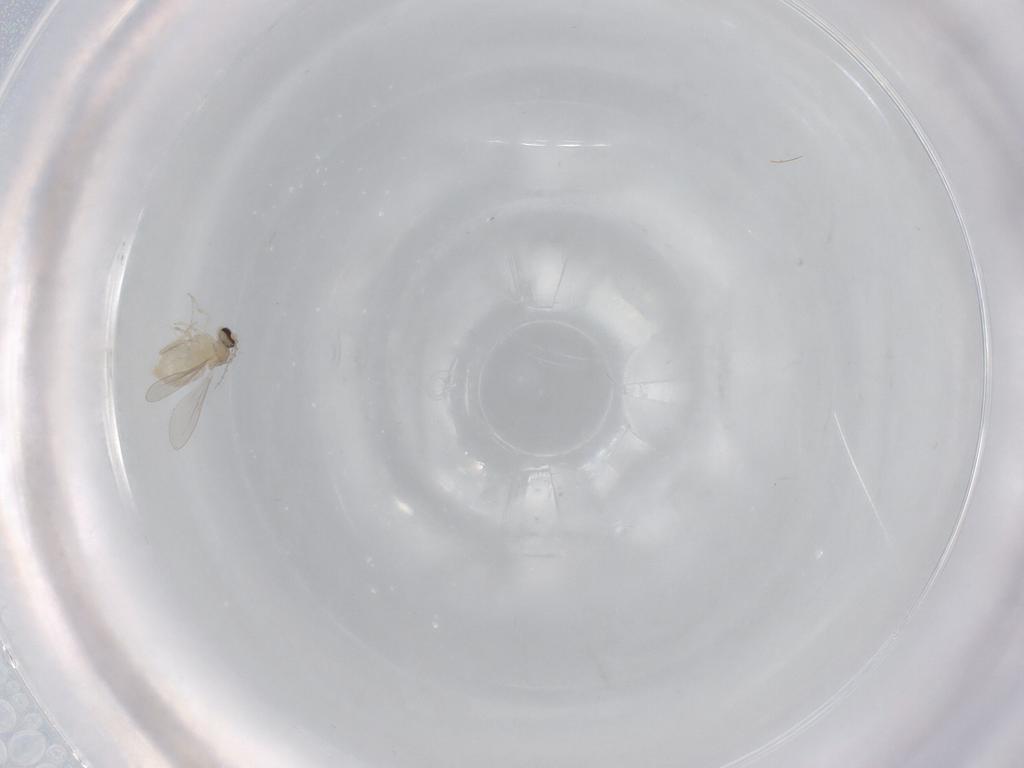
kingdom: Animalia
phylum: Arthropoda
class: Insecta
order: Diptera
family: Cecidomyiidae
